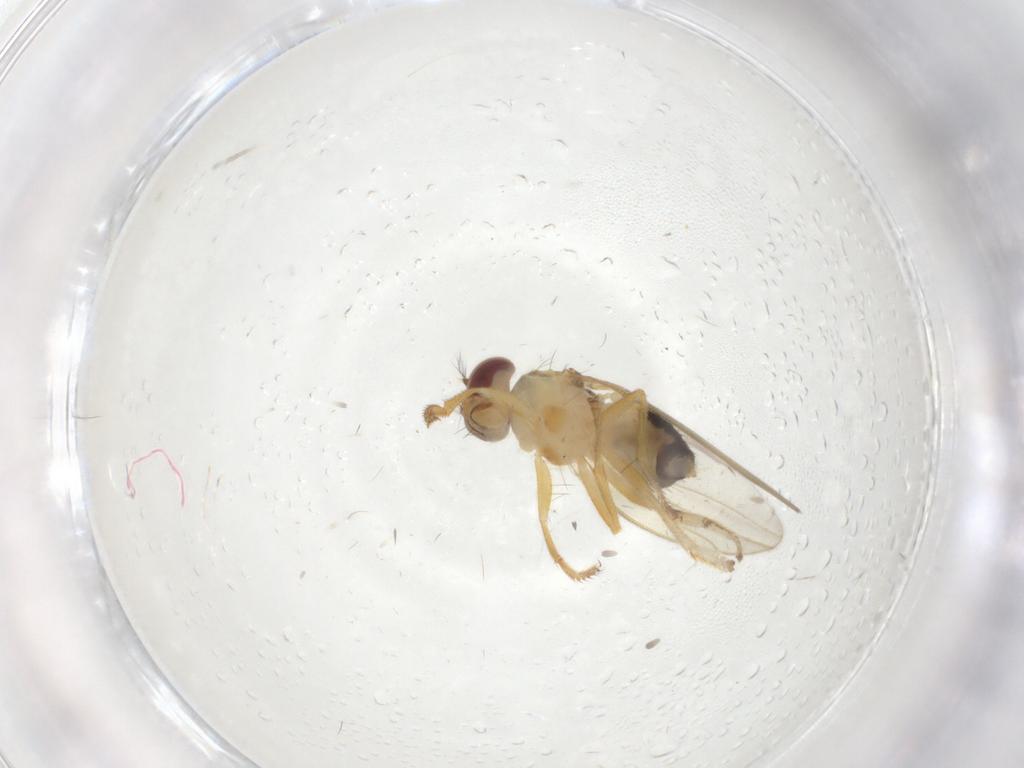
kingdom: Animalia
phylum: Arthropoda
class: Insecta
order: Diptera
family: Periscelididae
